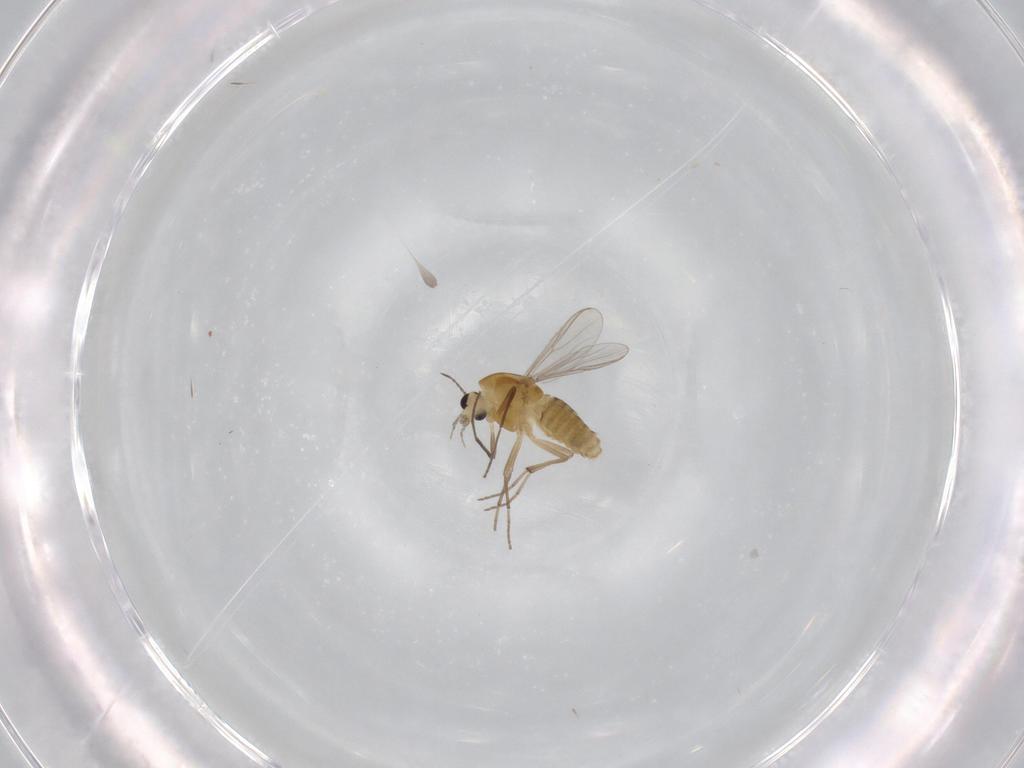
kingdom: Animalia
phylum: Arthropoda
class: Insecta
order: Diptera
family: Chironomidae
